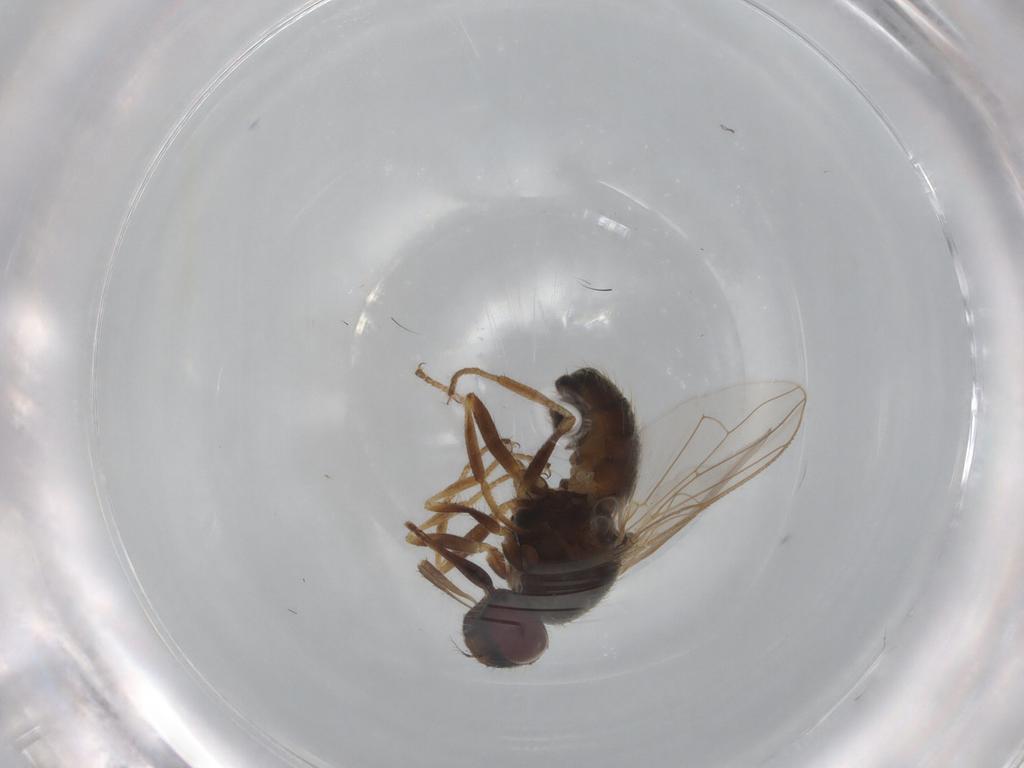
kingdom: Animalia
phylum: Arthropoda
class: Insecta
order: Diptera
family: Muscidae
